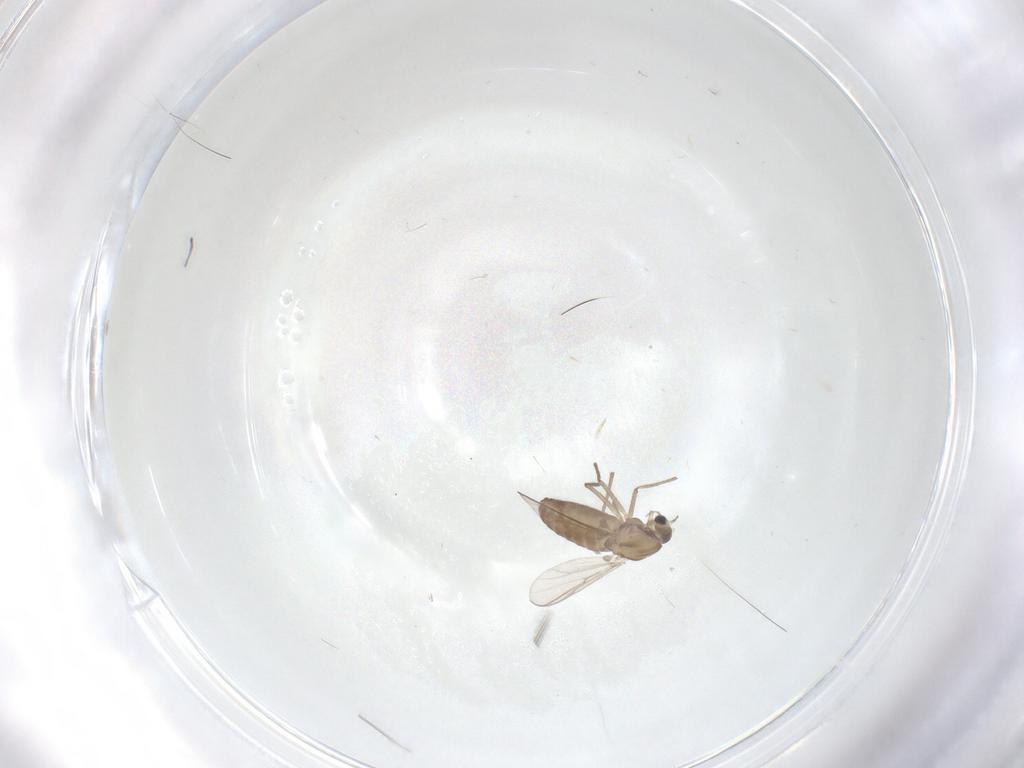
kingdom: Animalia
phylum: Arthropoda
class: Insecta
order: Diptera
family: Chironomidae
